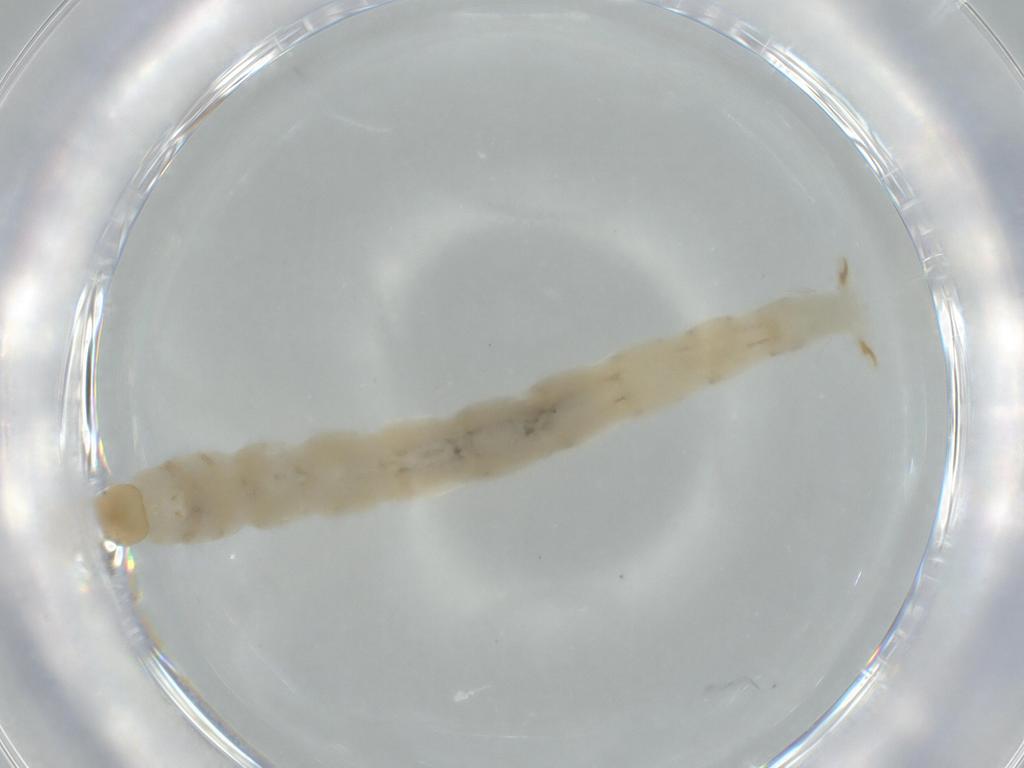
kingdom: Animalia
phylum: Arthropoda
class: Insecta
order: Diptera
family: Chironomidae
